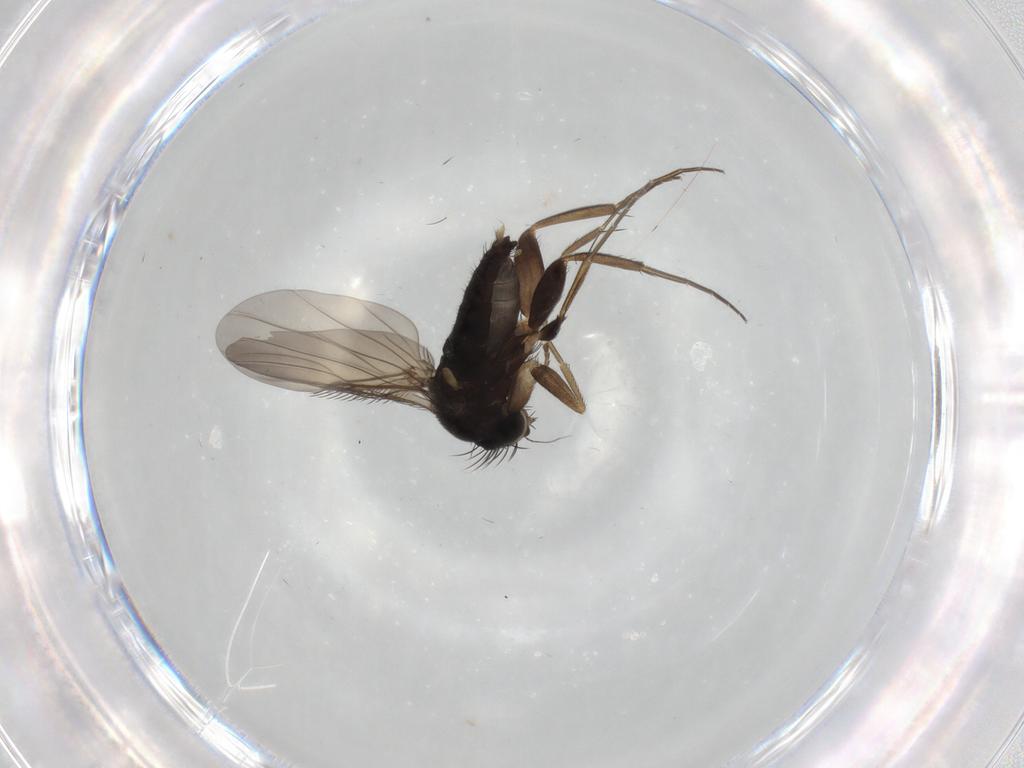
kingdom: Animalia
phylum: Arthropoda
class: Insecta
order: Diptera
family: Phoridae
